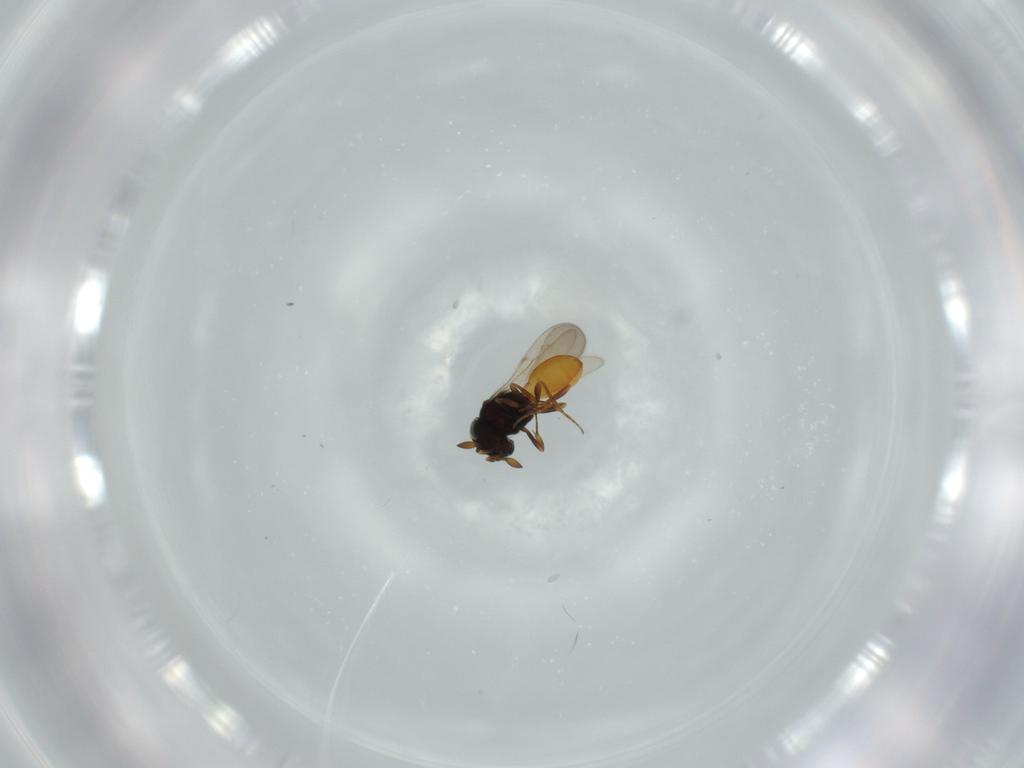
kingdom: Animalia
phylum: Arthropoda
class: Insecta
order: Hymenoptera
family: Scelionidae
